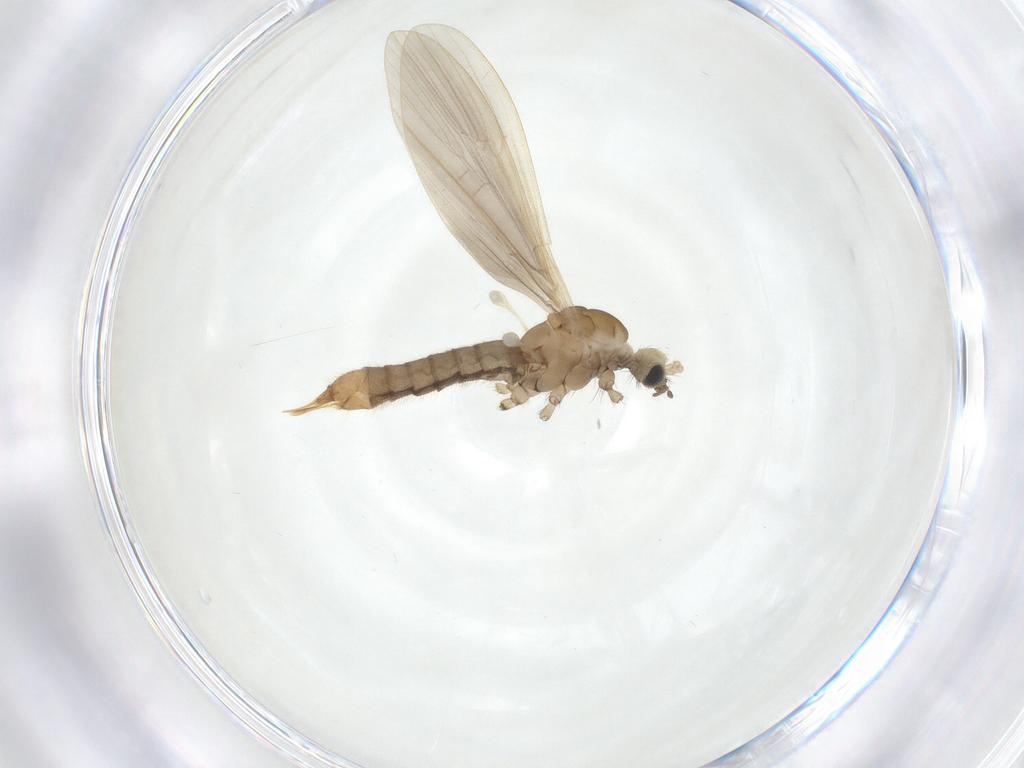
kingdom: Animalia
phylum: Arthropoda
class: Insecta
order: Diptera
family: Limoniidae
